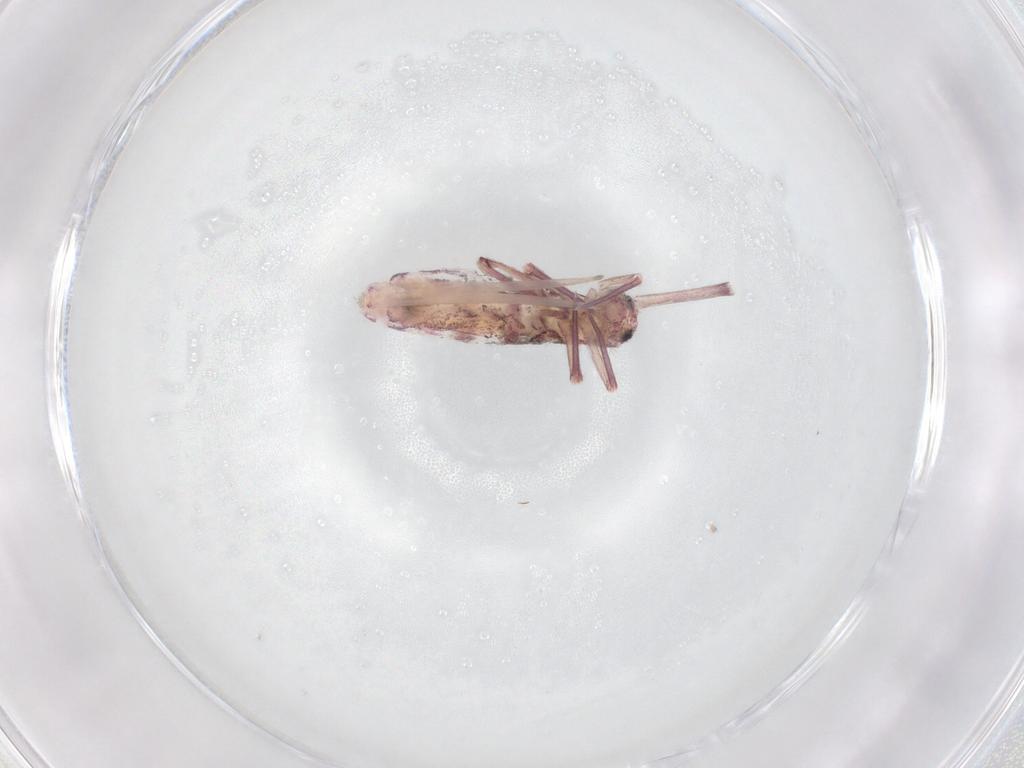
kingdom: Animalia
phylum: Arthropoda
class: Collembola
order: Entomobryomorpha
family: Entomobryidae
